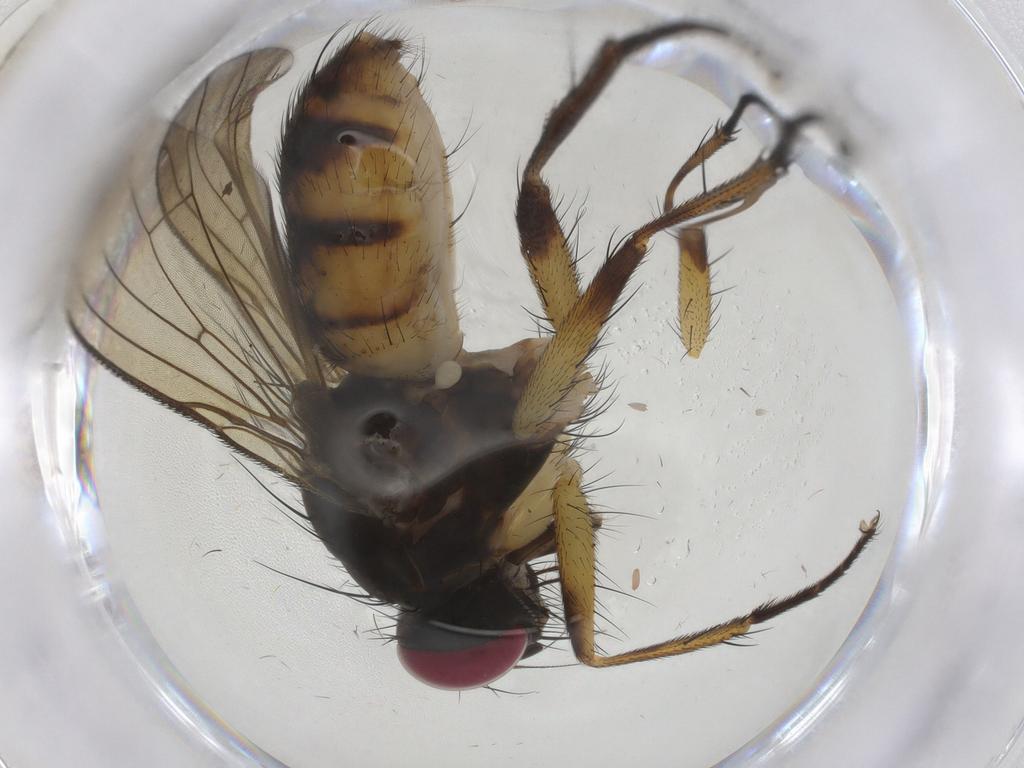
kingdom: Animalia
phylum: Arthropoda
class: Insecta
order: Diptera
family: Muscidae
